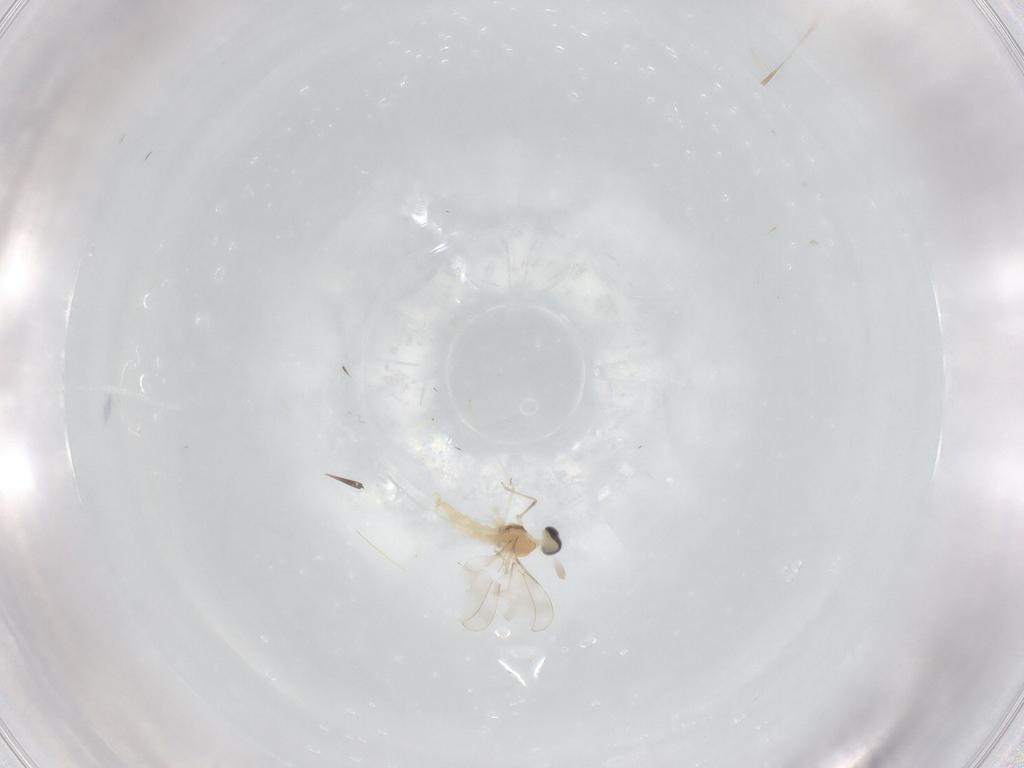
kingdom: Animalia
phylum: Arthropoda
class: Insecta
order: Diptera
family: Cecidomyiidae
